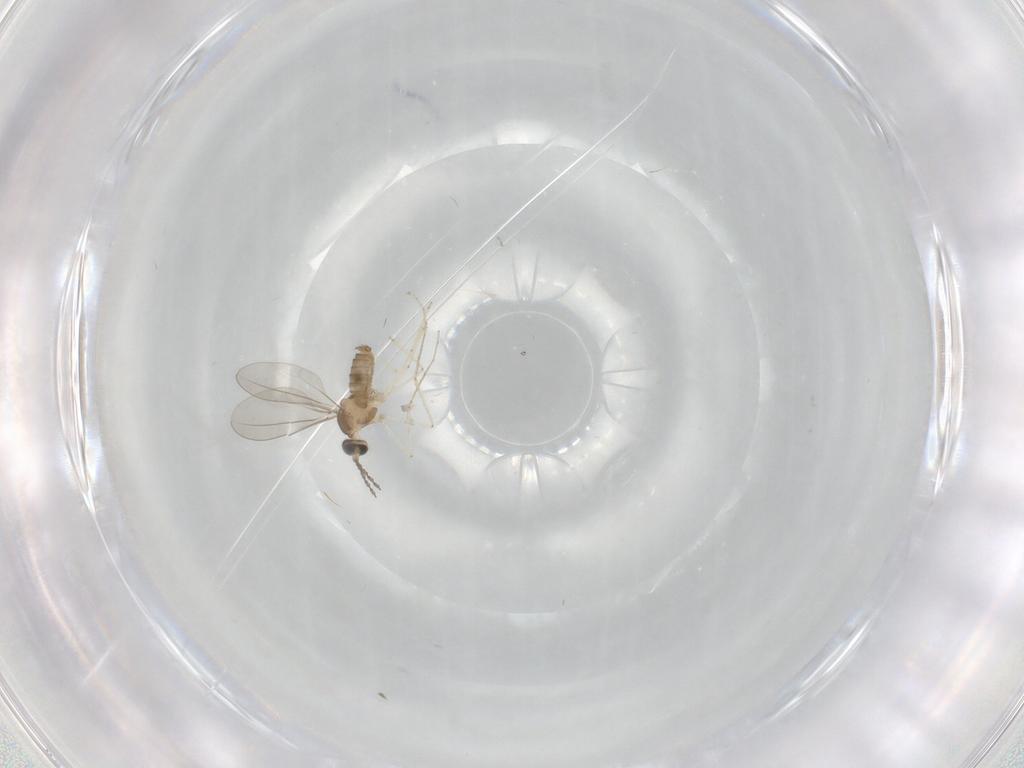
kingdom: Animalia
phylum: Arthropoda
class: Insecta
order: Diptera
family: Cecidomyiidae
